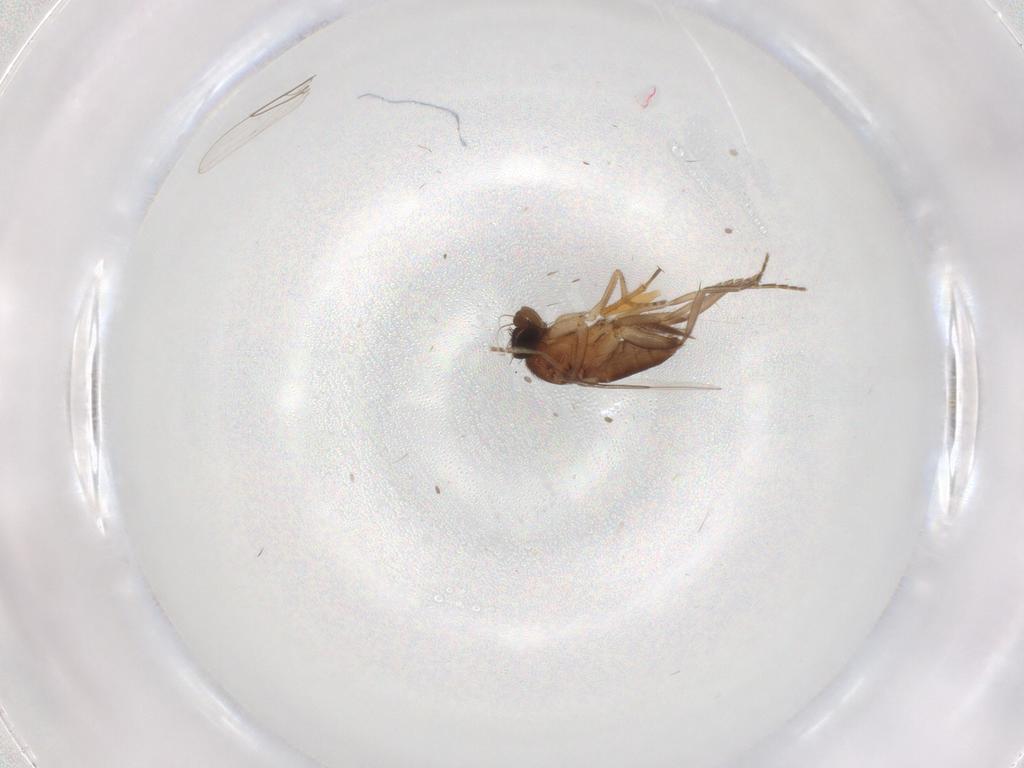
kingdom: Animalia
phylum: Arthropoda
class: Insecta
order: Diptera
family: Phoridae
